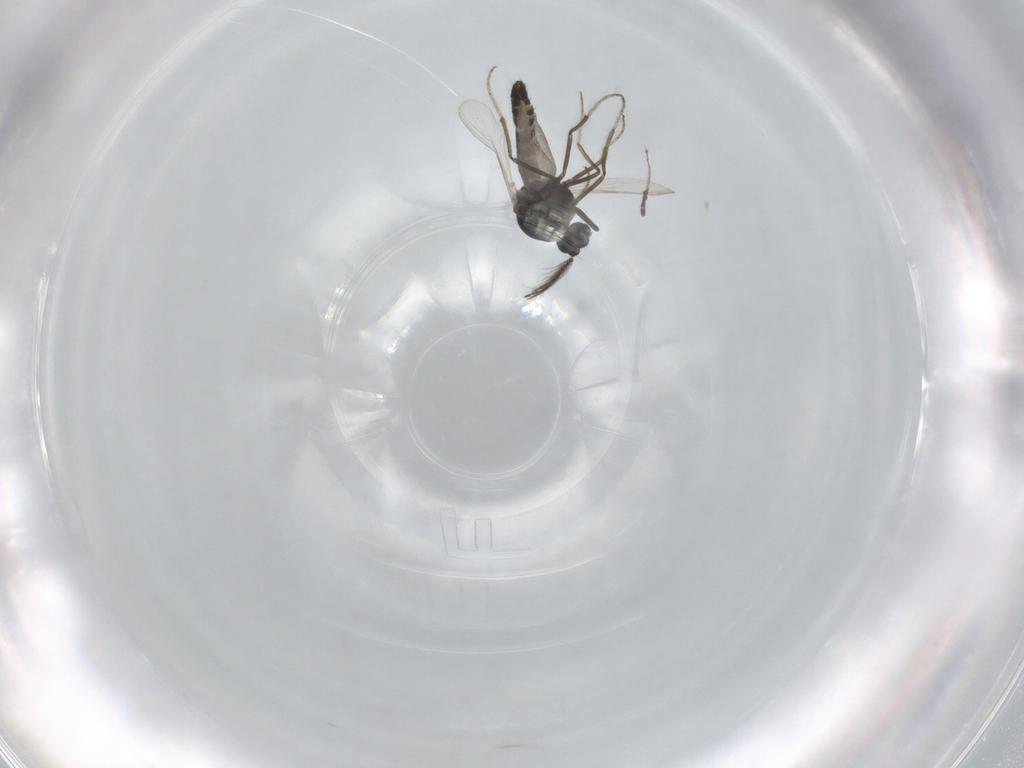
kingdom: Animalia
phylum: Arthropoda
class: Insecta
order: Diptera
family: Ceratopogonidae
